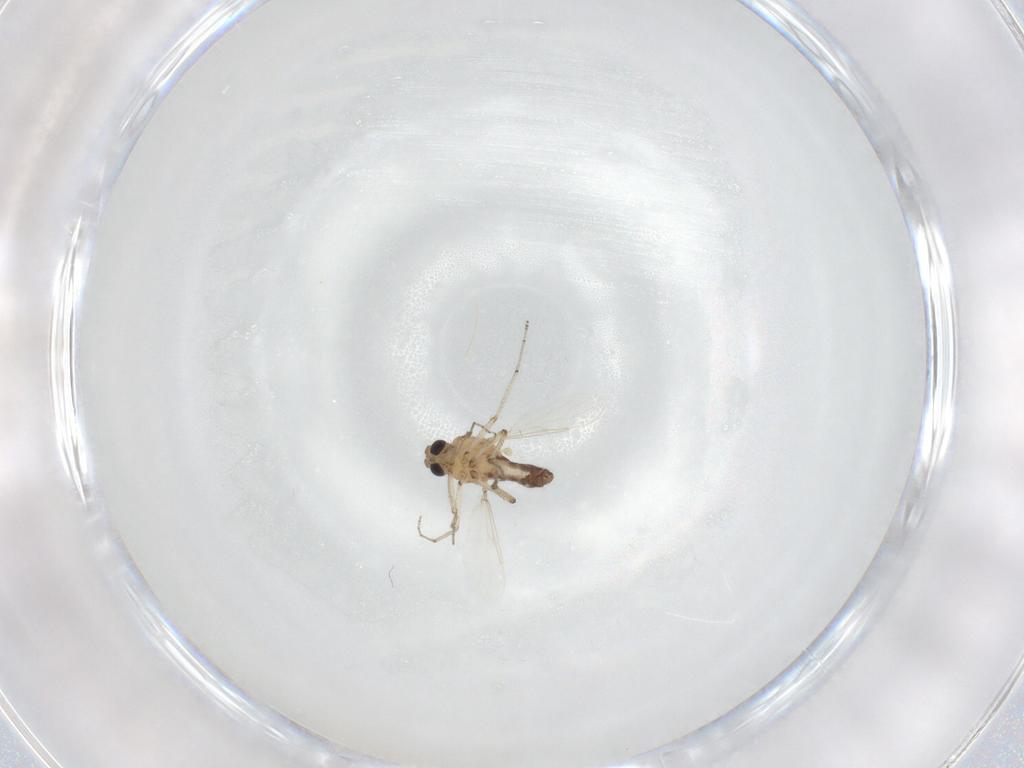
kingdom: Animalia
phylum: Arthropoda
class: Insecta
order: Diptera
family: Ceratopogonidae
